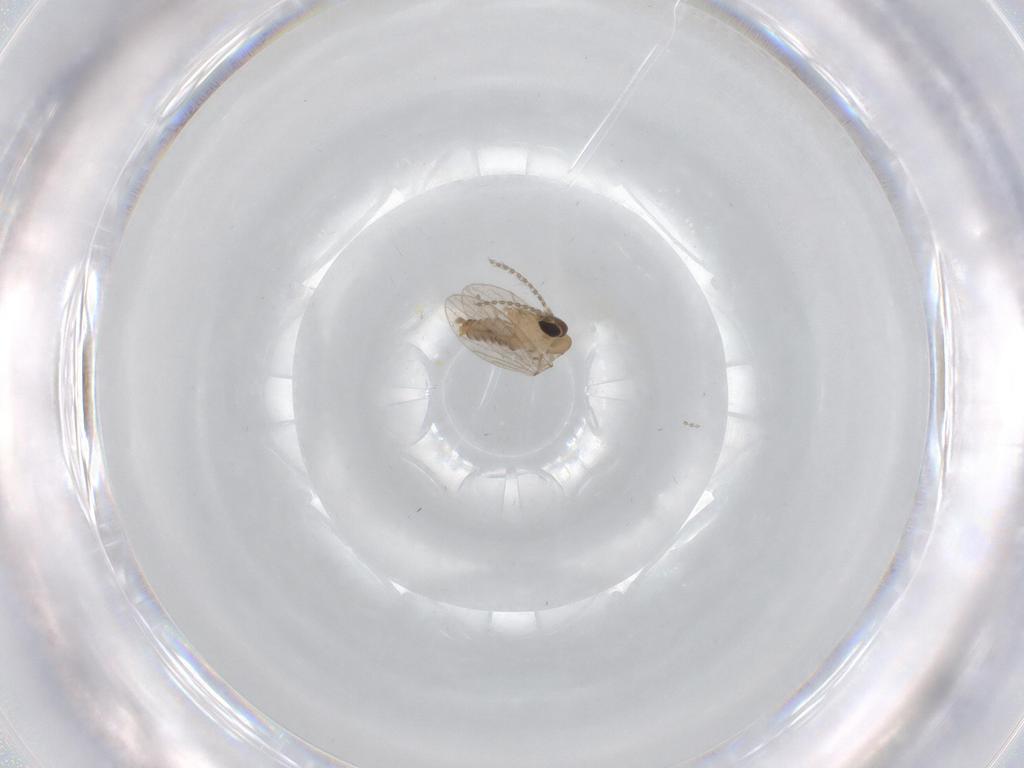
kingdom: Animalia
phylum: Arthropoda
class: Insecta
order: Diptera
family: Psychodidae
